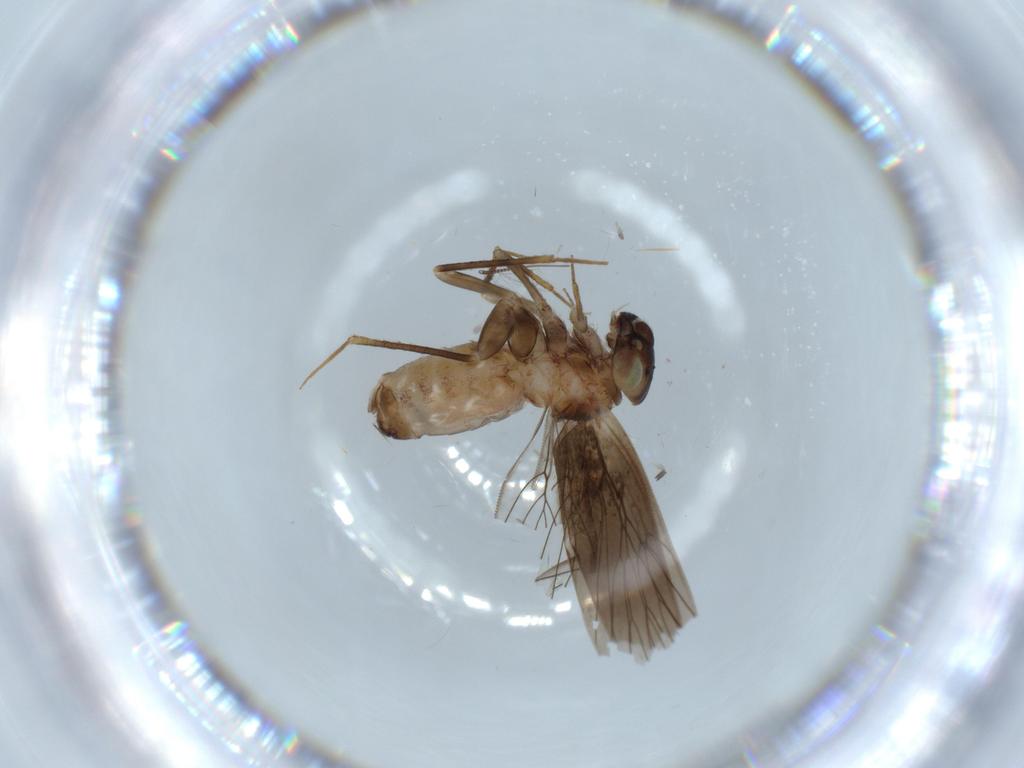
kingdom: Animalia
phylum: Arthropoda
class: Insecta
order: Psocodea
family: Lepidopsocidae
